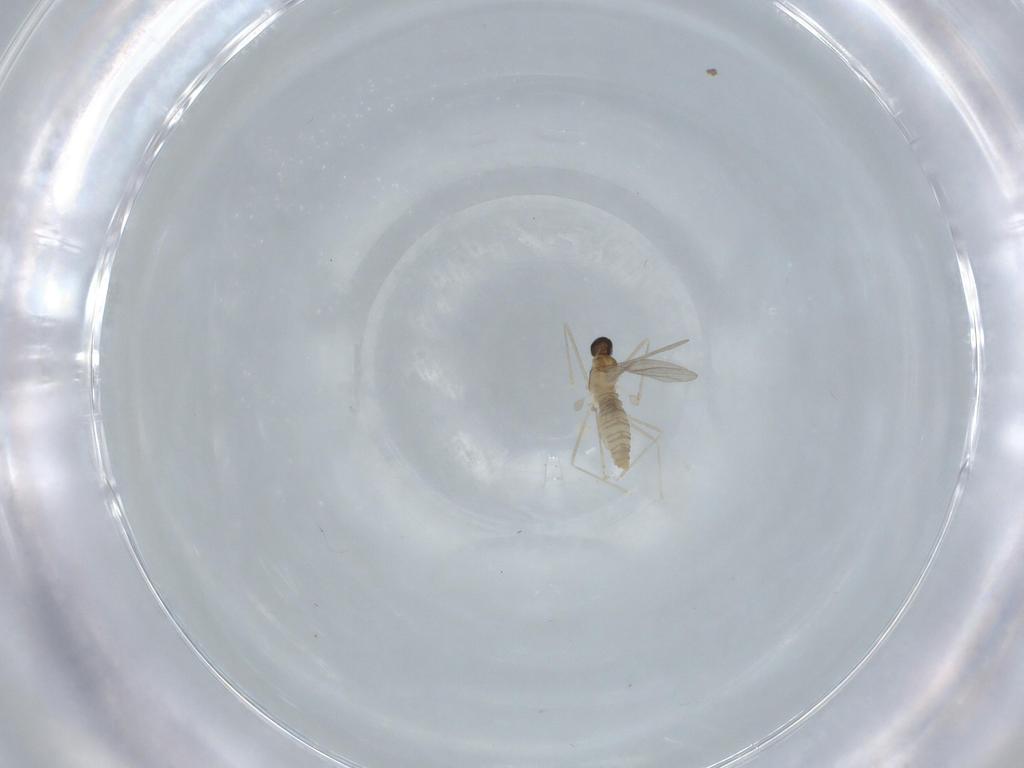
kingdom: Animalia
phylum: Arthropoda
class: Insecta
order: Diptera
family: Cecidomyiidae
